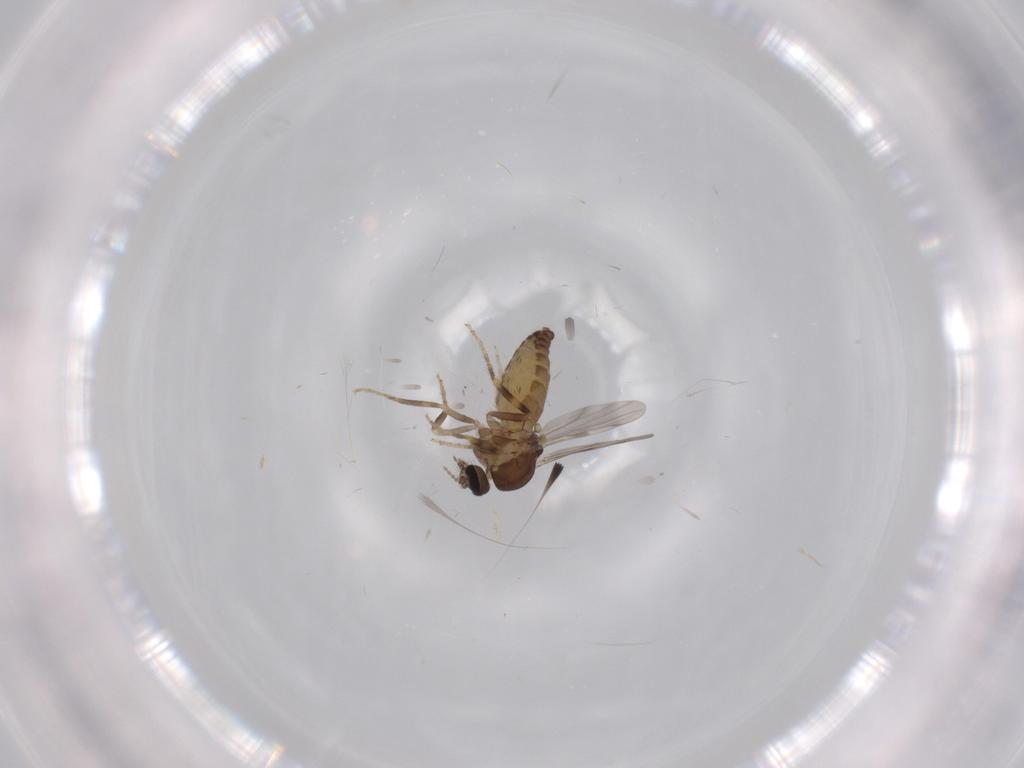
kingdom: Animalia
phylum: Arthropoda
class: Insecta
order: Diptera
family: Ceratopogonidae
